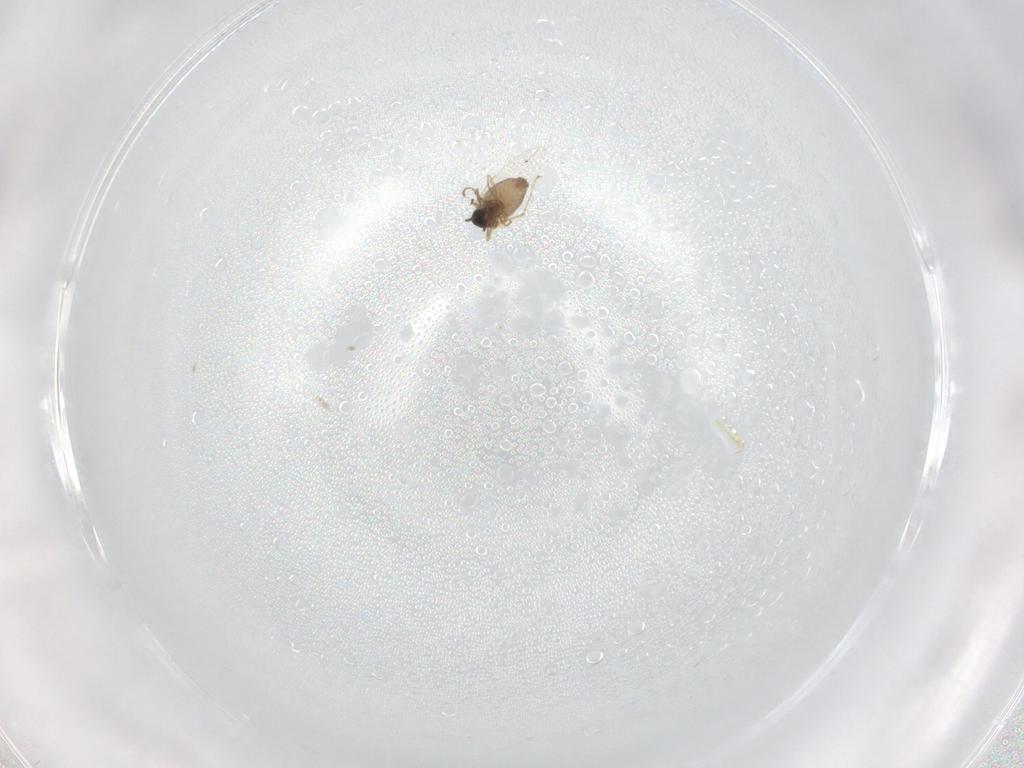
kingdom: Animalia
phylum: Arthropoda
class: Insecta
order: Diptera
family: Cecidomyiidae
